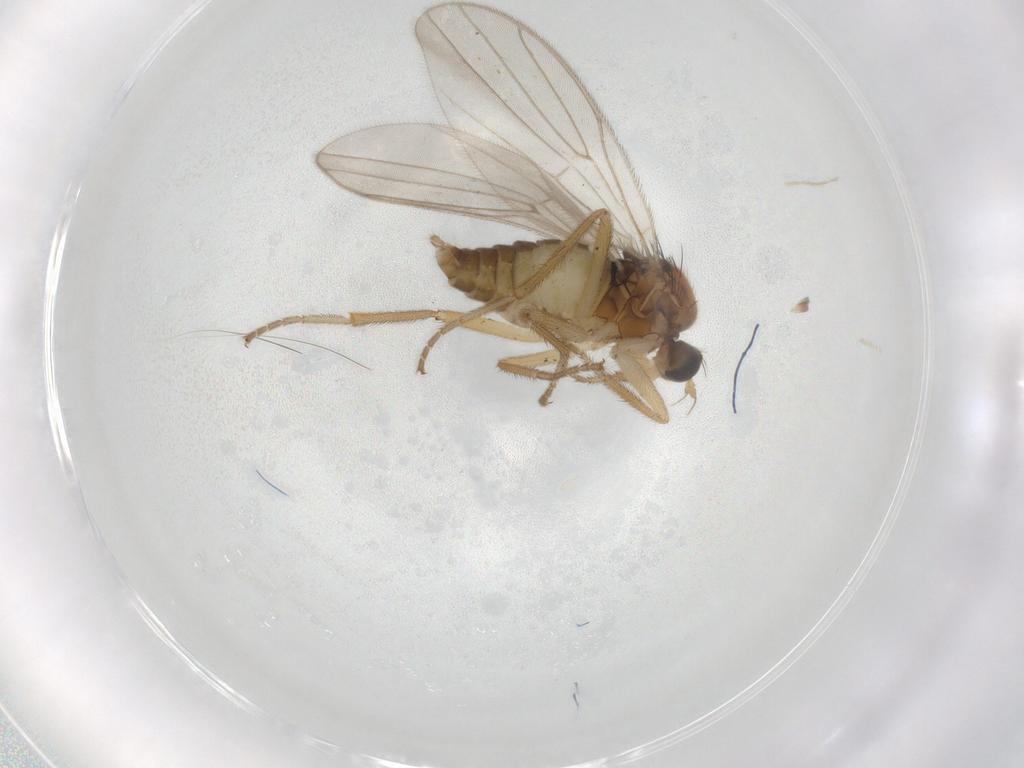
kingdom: Animalia
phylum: Arthropoda
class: Insecta
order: Diptera
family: Hybotidae
